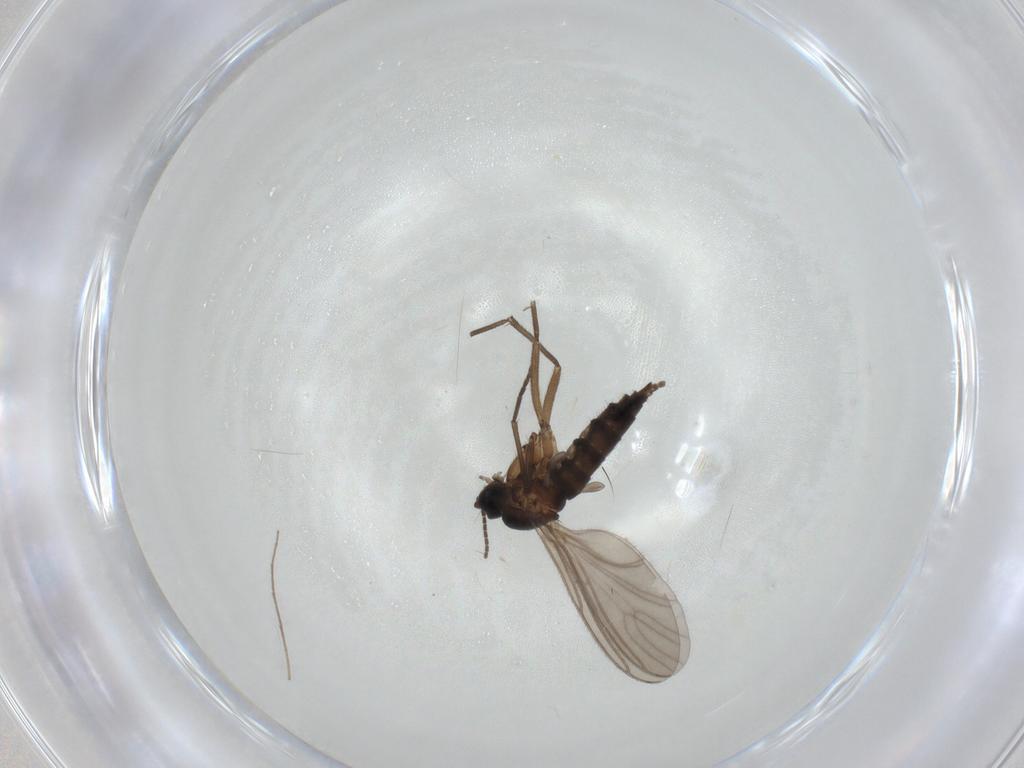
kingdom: Animalia
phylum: Arthropoda
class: Insecta
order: Diptera
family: Sciaridae
